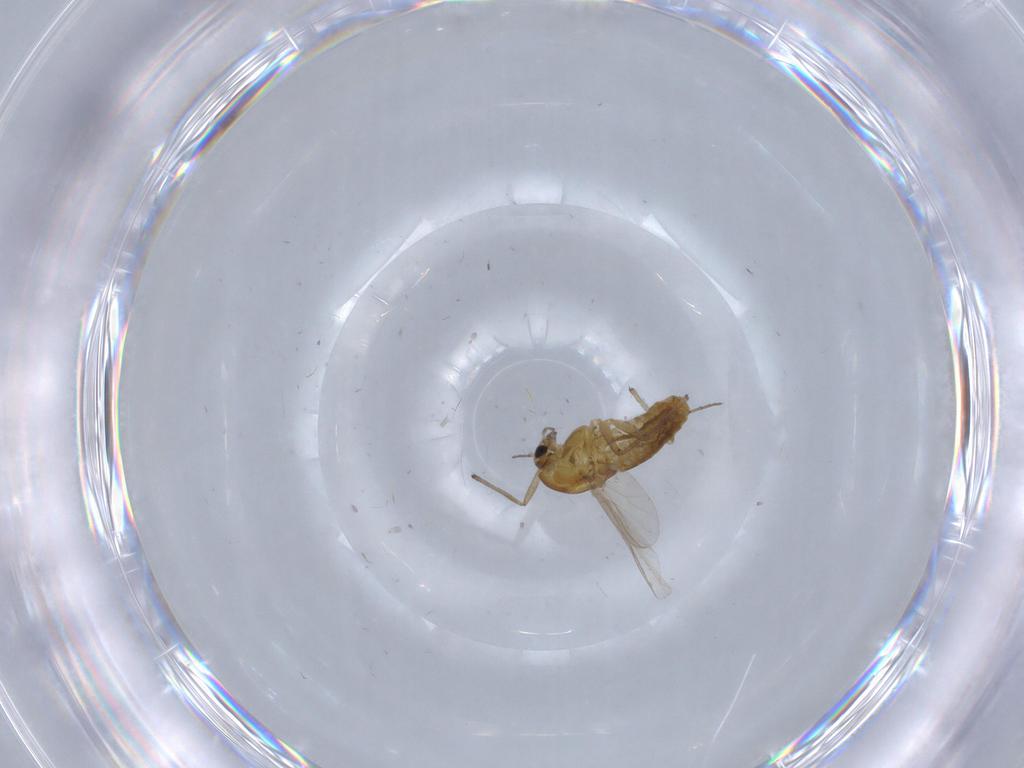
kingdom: Animalia
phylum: Arthropoda
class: Insecta
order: Diptera
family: Chironomidae
